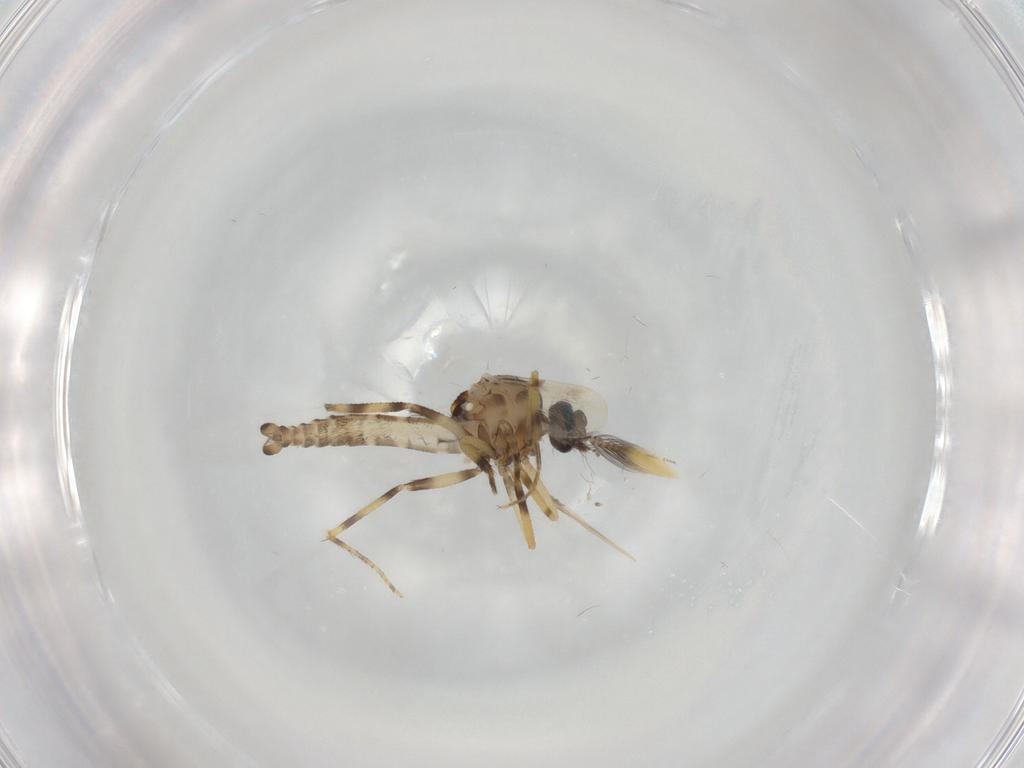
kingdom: Animalia
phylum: Arthropoda
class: Insecta
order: Diptera
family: Ceratopogonidae
